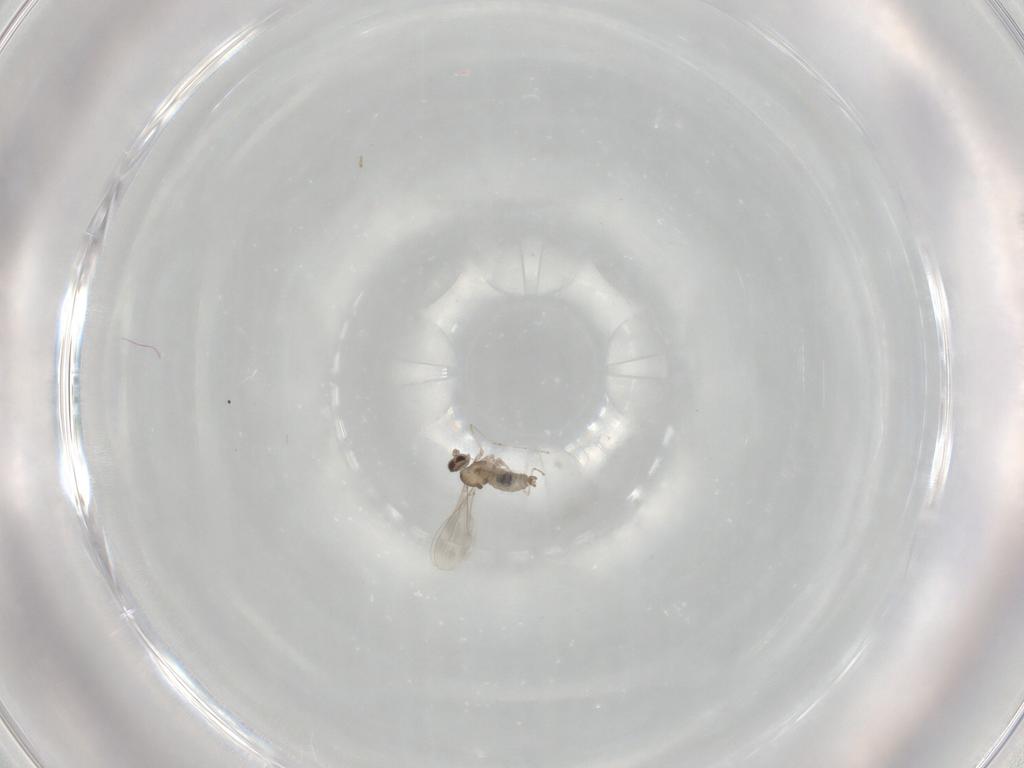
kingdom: Animalia
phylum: Arthropoda
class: Insecta
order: Diptera
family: Cecidomyiidae
